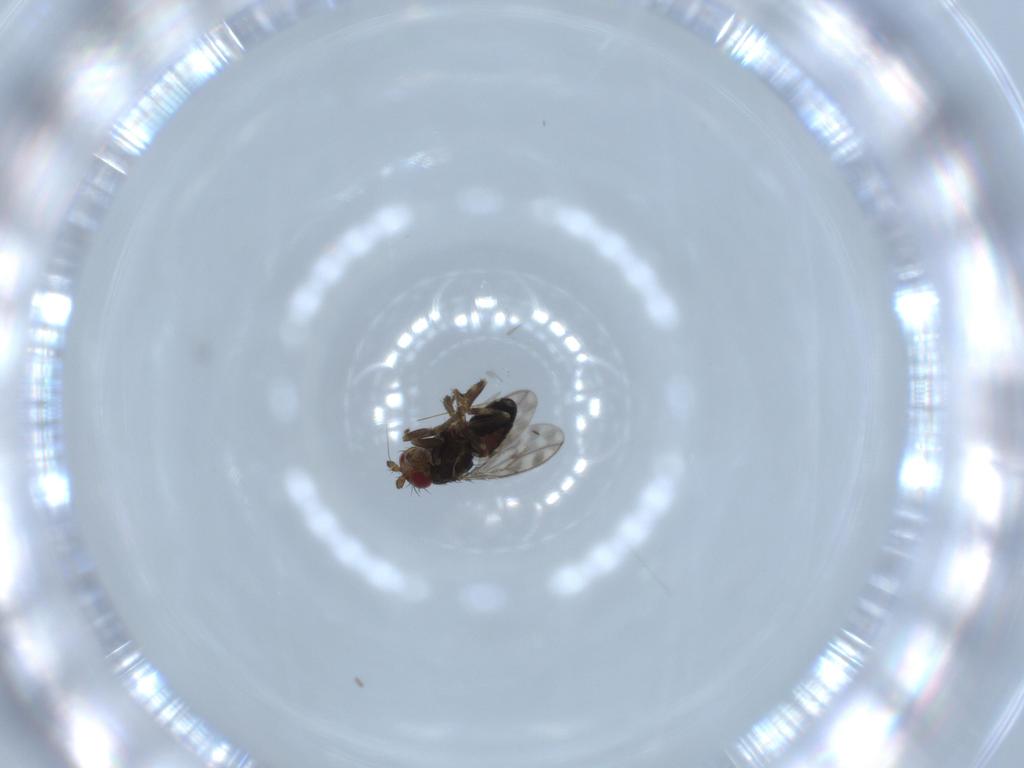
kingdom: Animalia
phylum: Arthropoda
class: Insecta
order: Diptera
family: Sphaeroceridae
